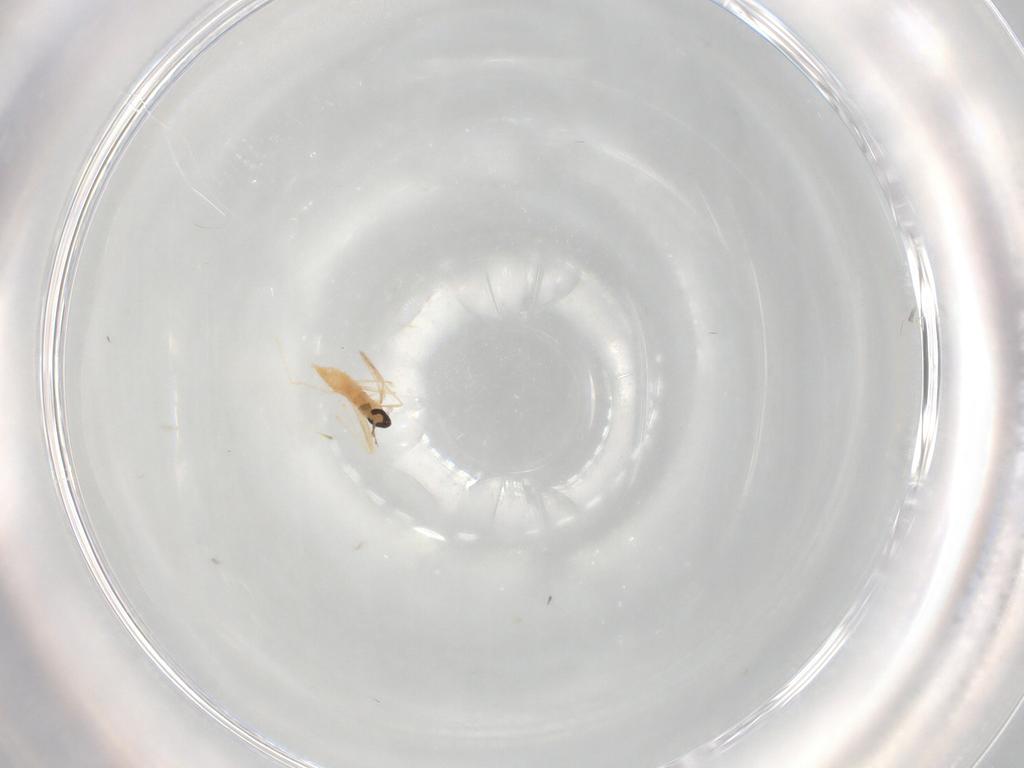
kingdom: Animalia
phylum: Arthropoda
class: Insecta
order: Diptera
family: Cecidomyiidae
